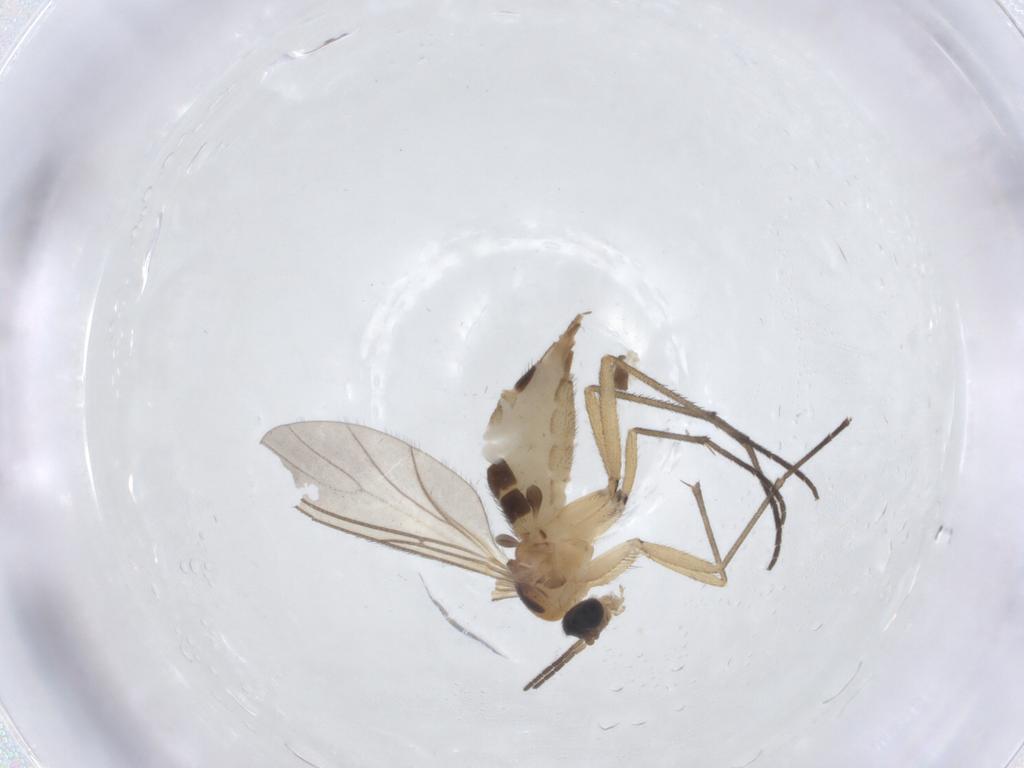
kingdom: Animalia
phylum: Arthropoda
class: Insecta
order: Diptera
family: Sciaridae
